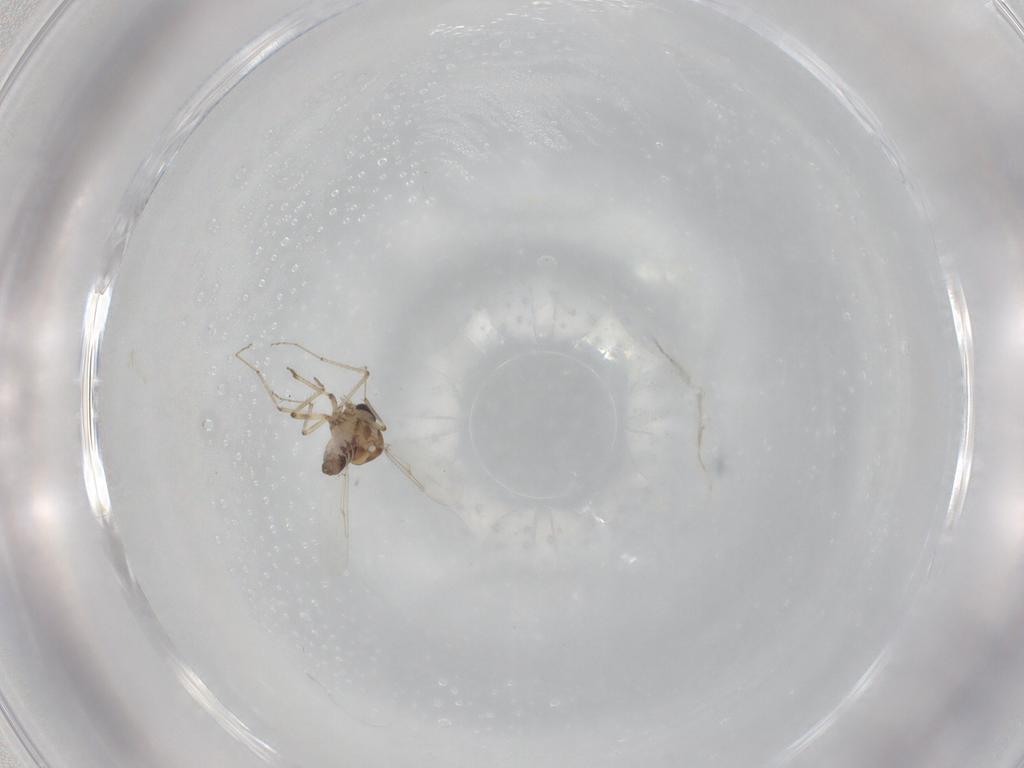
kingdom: Animalia
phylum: Arthropoda
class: Insecta
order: Diptera
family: Ceratopogonidae
